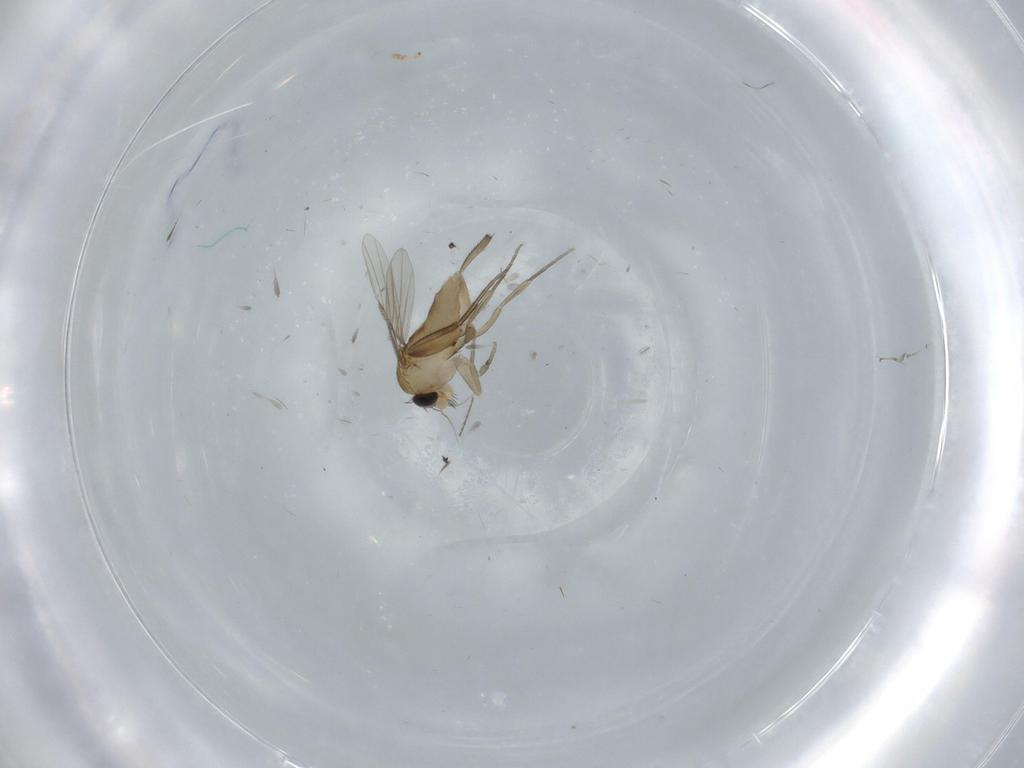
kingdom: Animalia
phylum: Arthropoda
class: Insecta
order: Diptera
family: Phoridae
